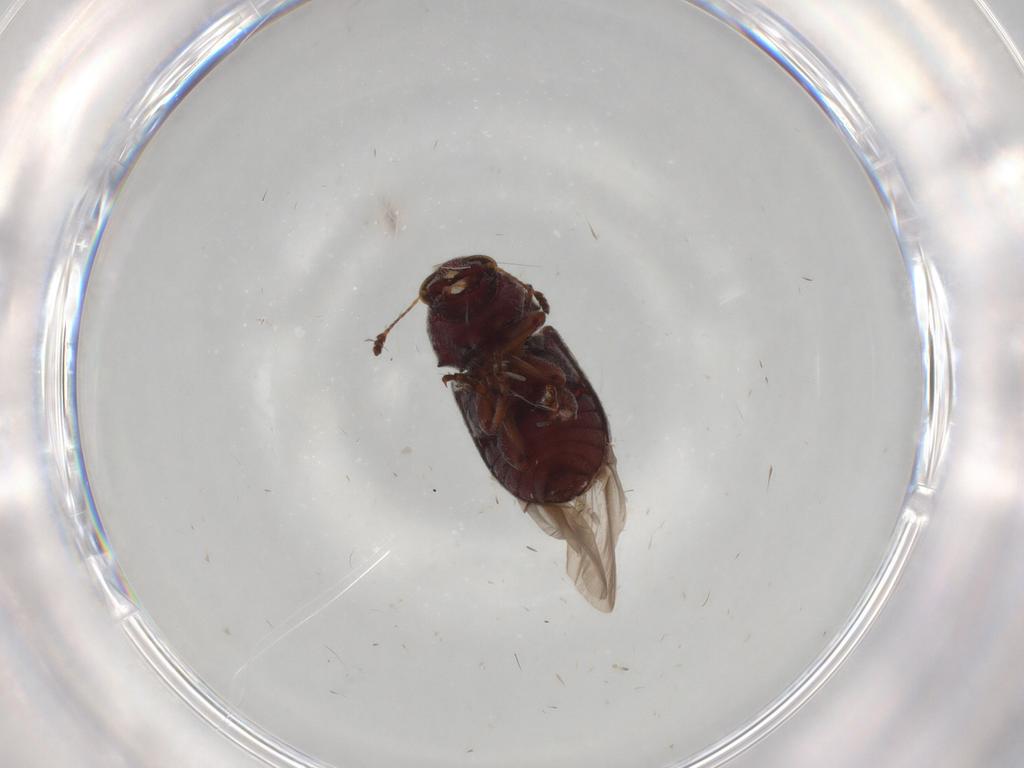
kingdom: Animalia
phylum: Arthropoda
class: Insecta
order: Coleoptera
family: Anthribidae
